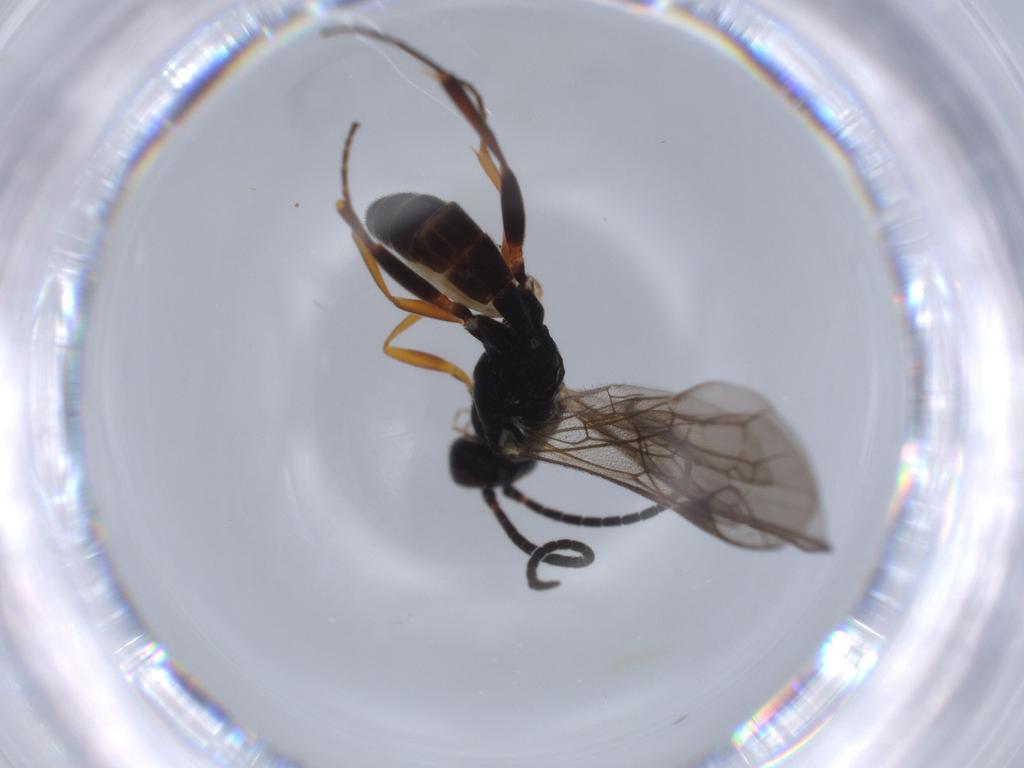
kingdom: Animalia
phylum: Arthropoda
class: Insecta
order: Hymenoptera
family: Ichneumonidae
